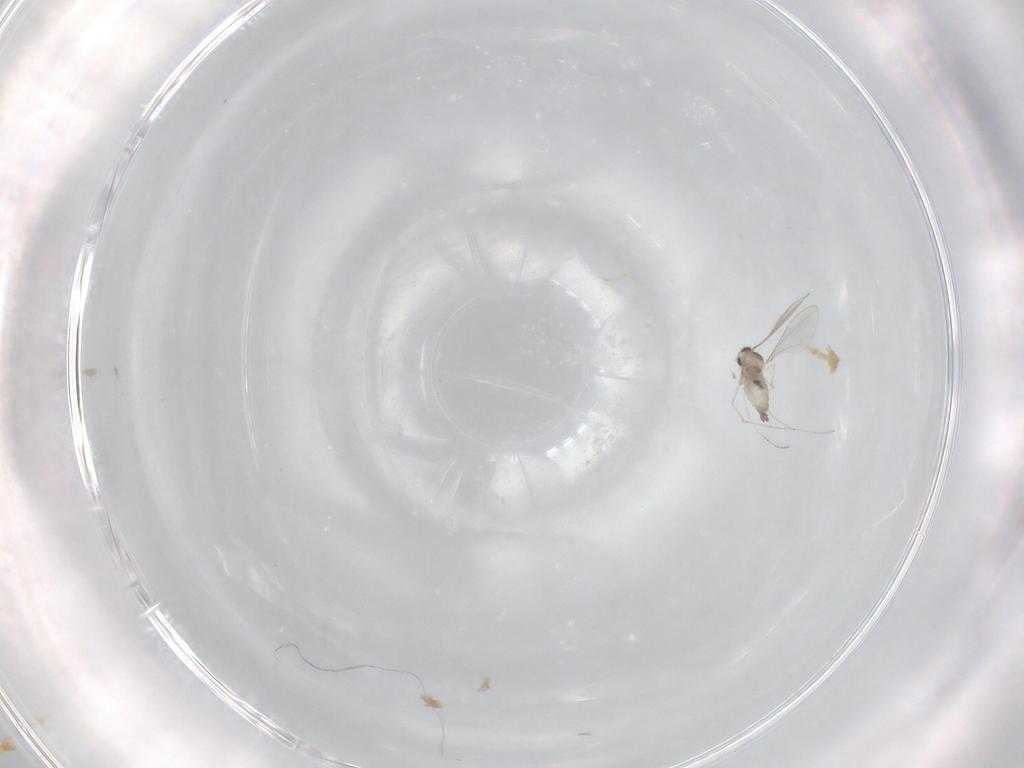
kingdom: Animalia
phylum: Arthropoda
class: Insecta
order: Diptera
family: Cecidomyiidae
